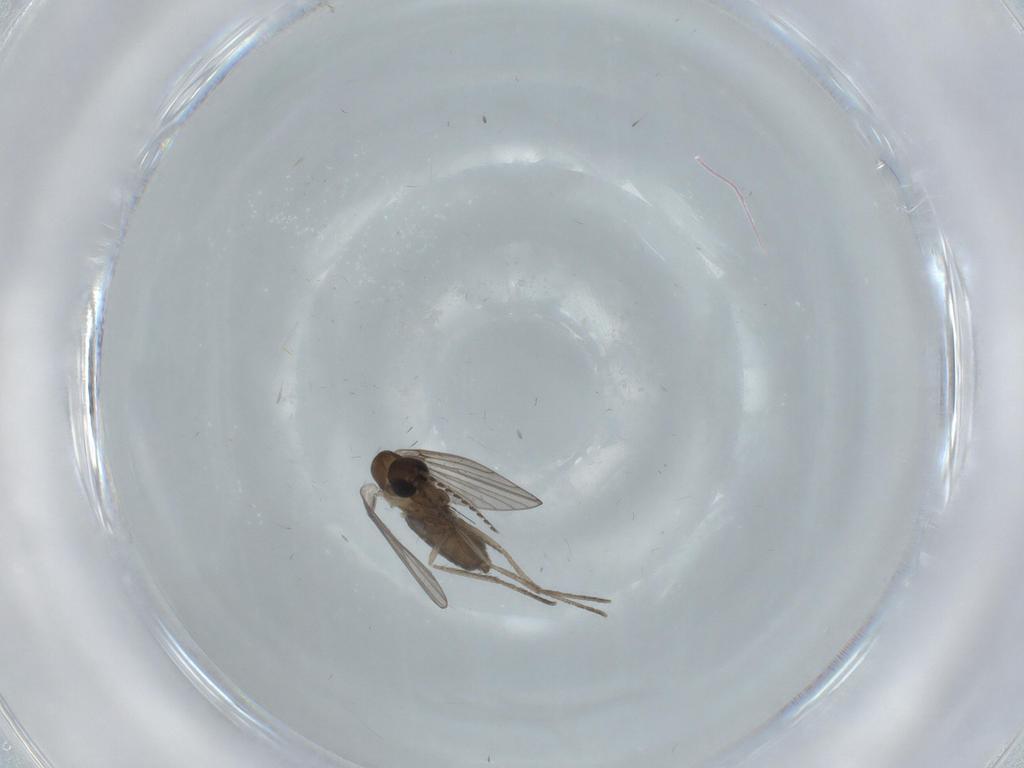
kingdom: Animalia
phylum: Arthropoda
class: Insecta
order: Diptera
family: Psychodidae
